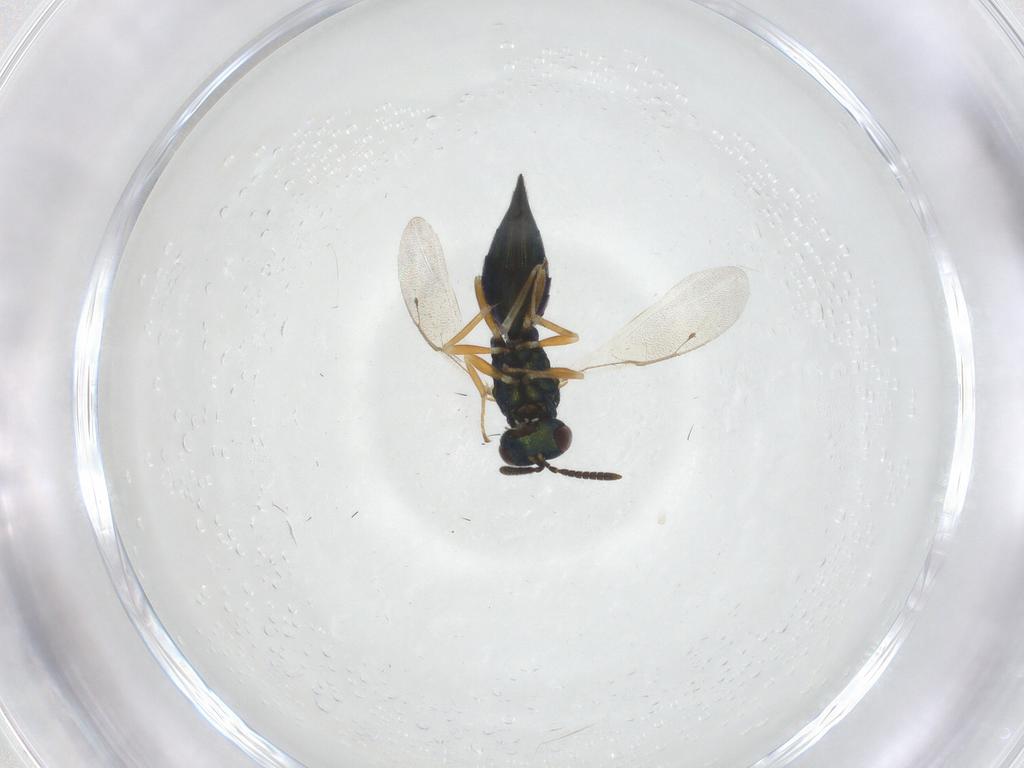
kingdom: Animalia
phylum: Arthropoda
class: Insecta
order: Hymenoptera
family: Pteromalidae
